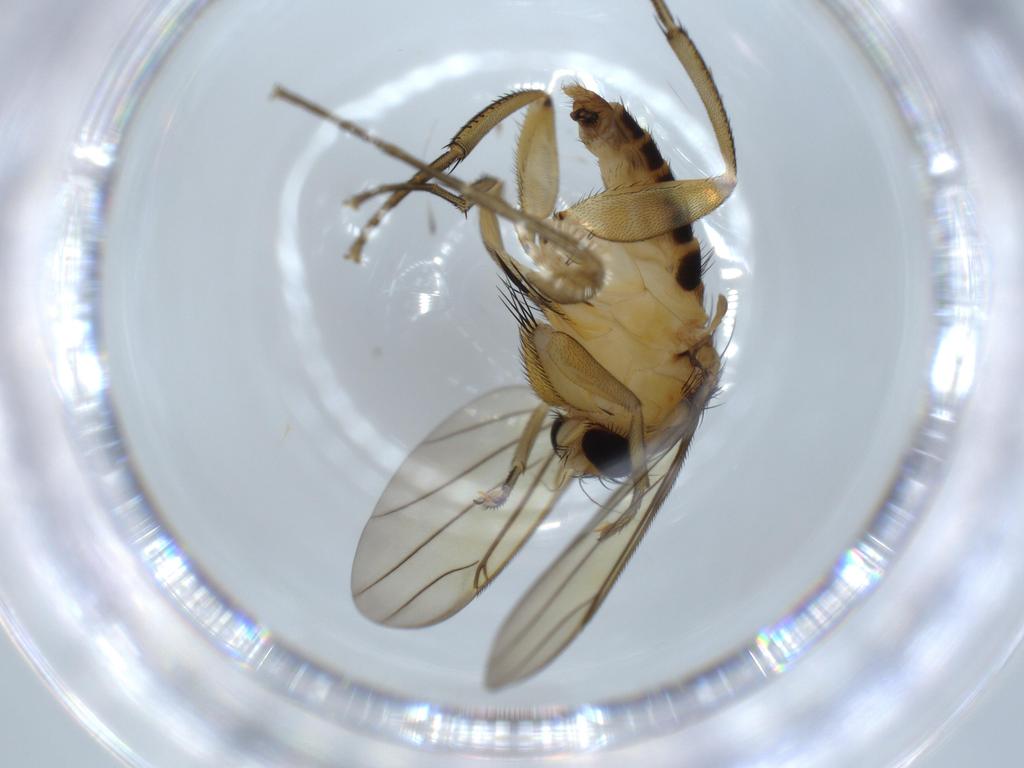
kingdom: Animalia
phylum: Arthropoda
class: Insecta
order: Diptera
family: Phoridae
